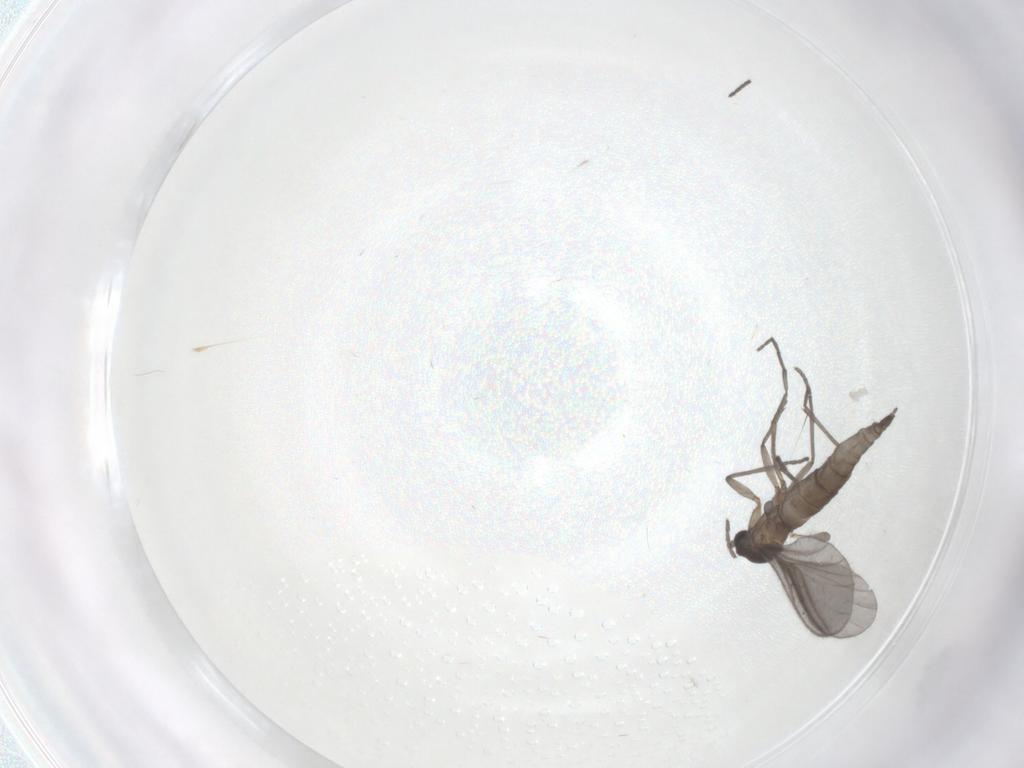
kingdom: Animalia
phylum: Arthropoda
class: Insecta
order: Diptera
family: Sciaridae
